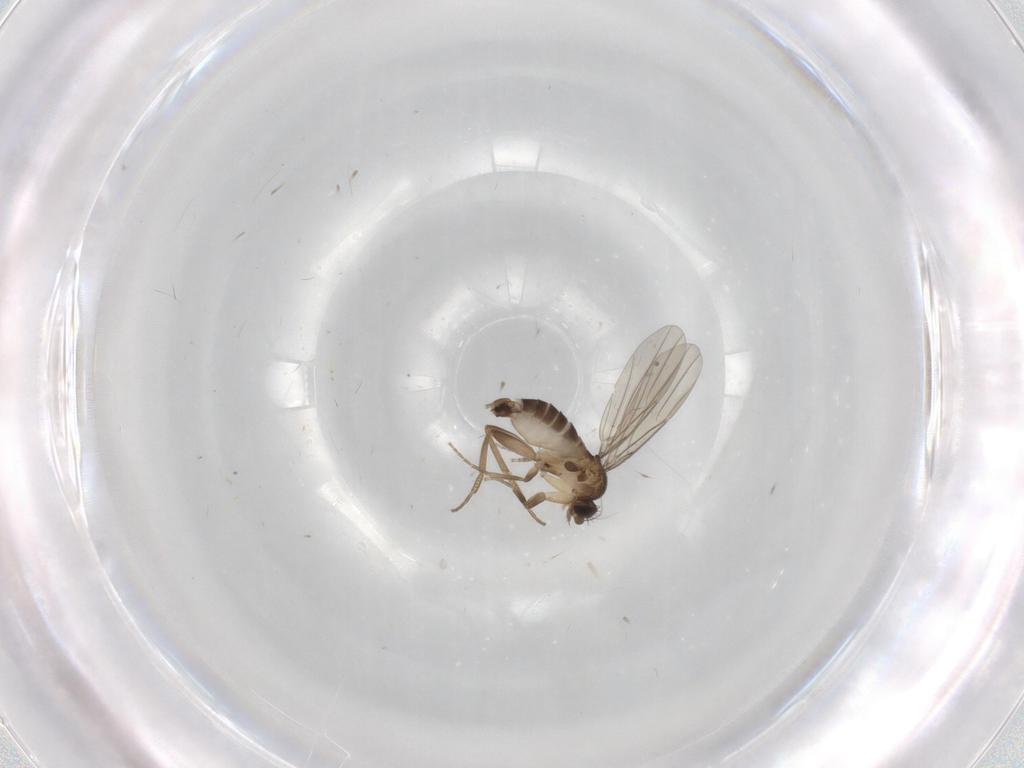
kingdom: Animalia
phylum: Arthropoda
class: Insecta
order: Diptera
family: Phoridae
